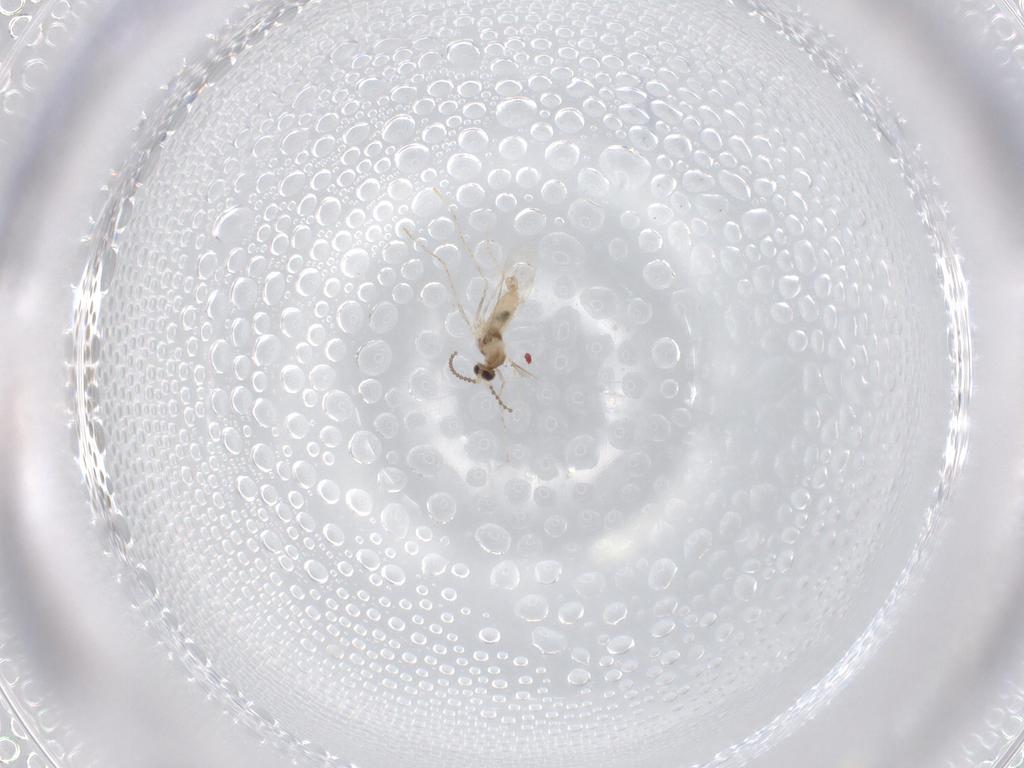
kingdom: Animalia
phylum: Arthropoda
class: Insecta
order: Diptera
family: Cecidomyiidae
